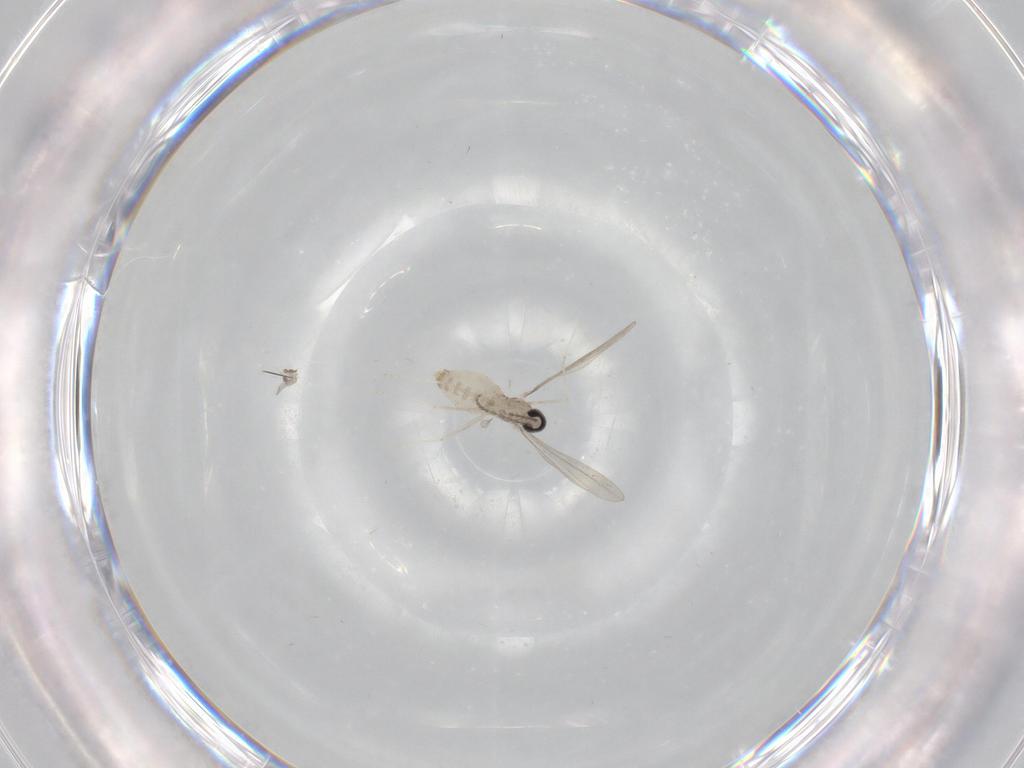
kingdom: Animalia
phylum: Arthropoda
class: Insecta
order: Diptera
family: Cecidomyiidae
